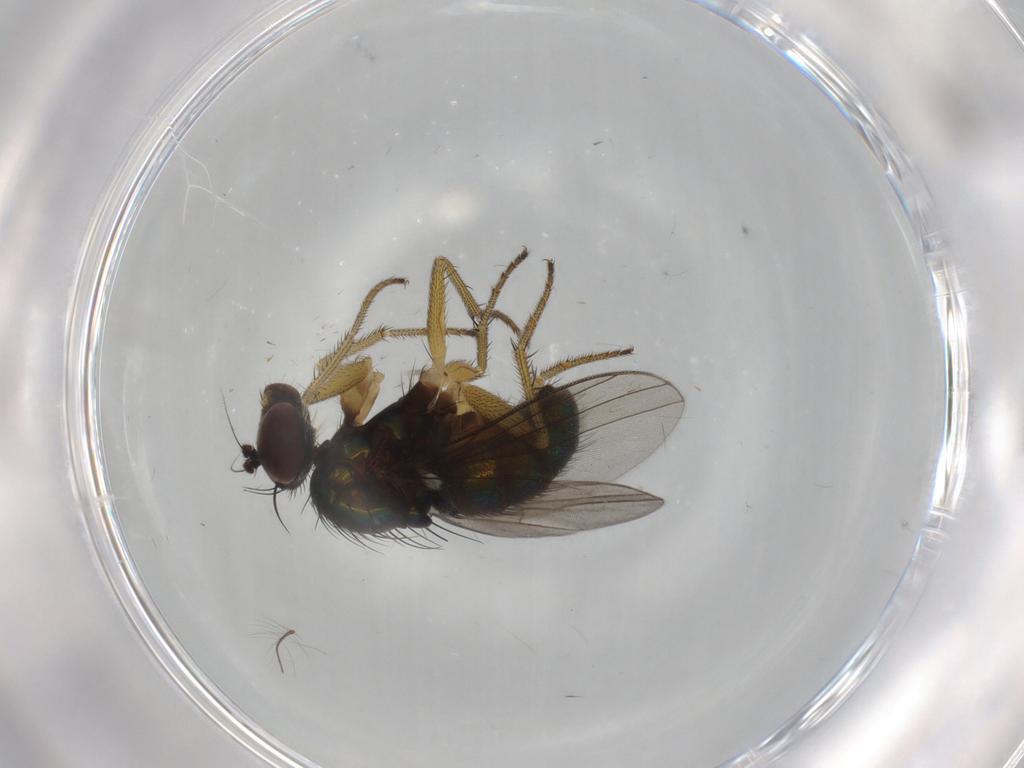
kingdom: Animalia
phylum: Arthropoda
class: Insecta
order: Diptera
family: Dolichopodidae
